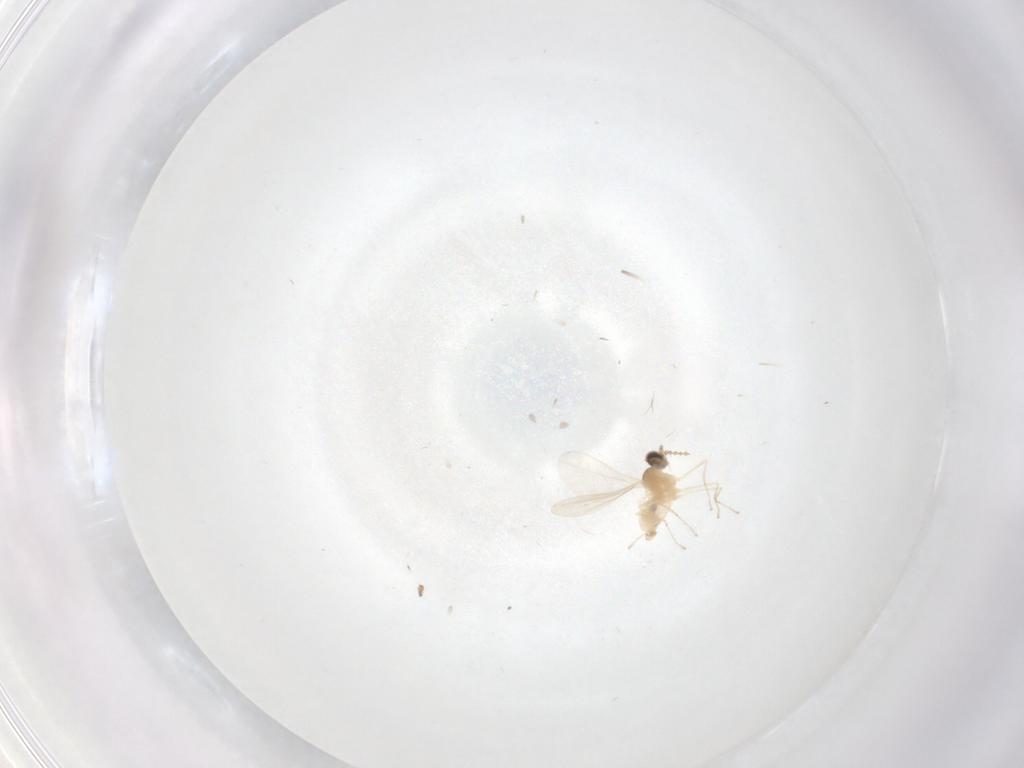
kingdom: Animalia
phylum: Arthropoda
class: Insecta
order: Diptera
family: Cecidomyiidae
